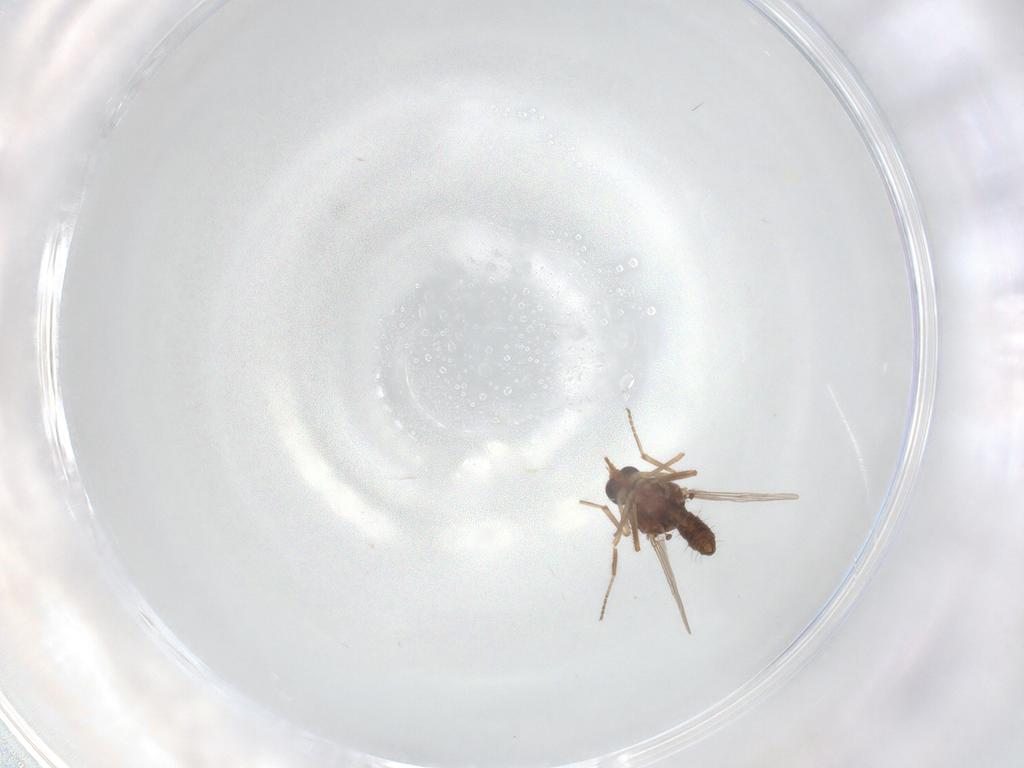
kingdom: Animalia
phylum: Arthropoda
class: Insecta
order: Diptera
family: Ceratopogonidae
